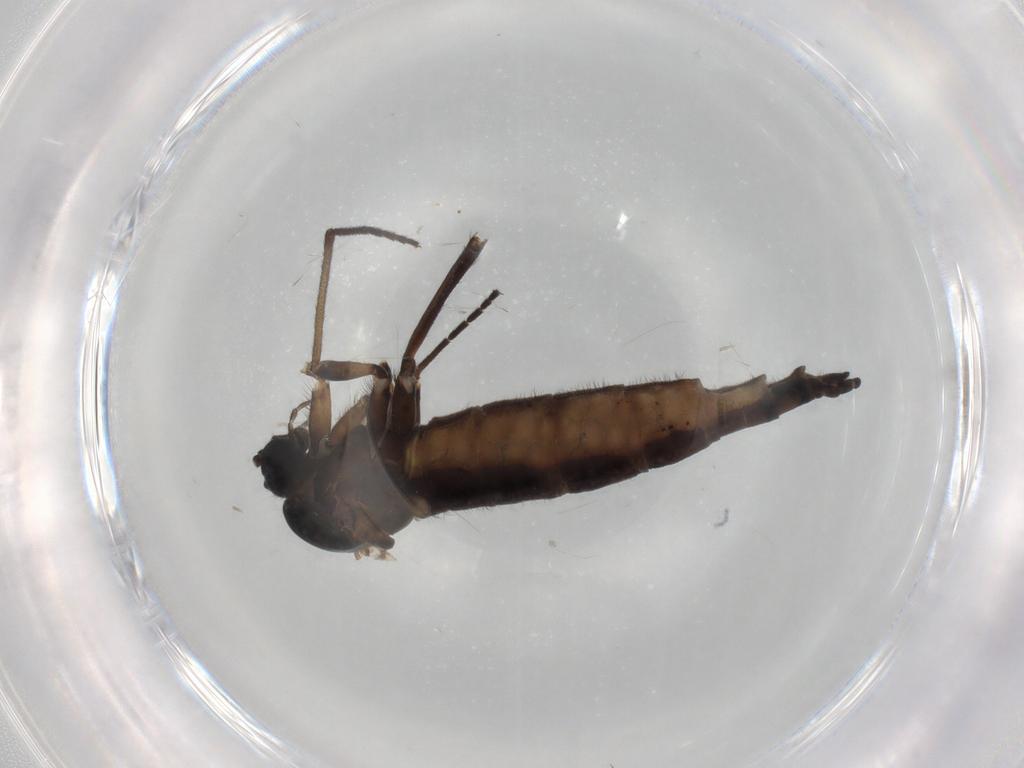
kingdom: Animalia
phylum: Arthropoda
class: Insecta
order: Diptera
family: Sciaridae
